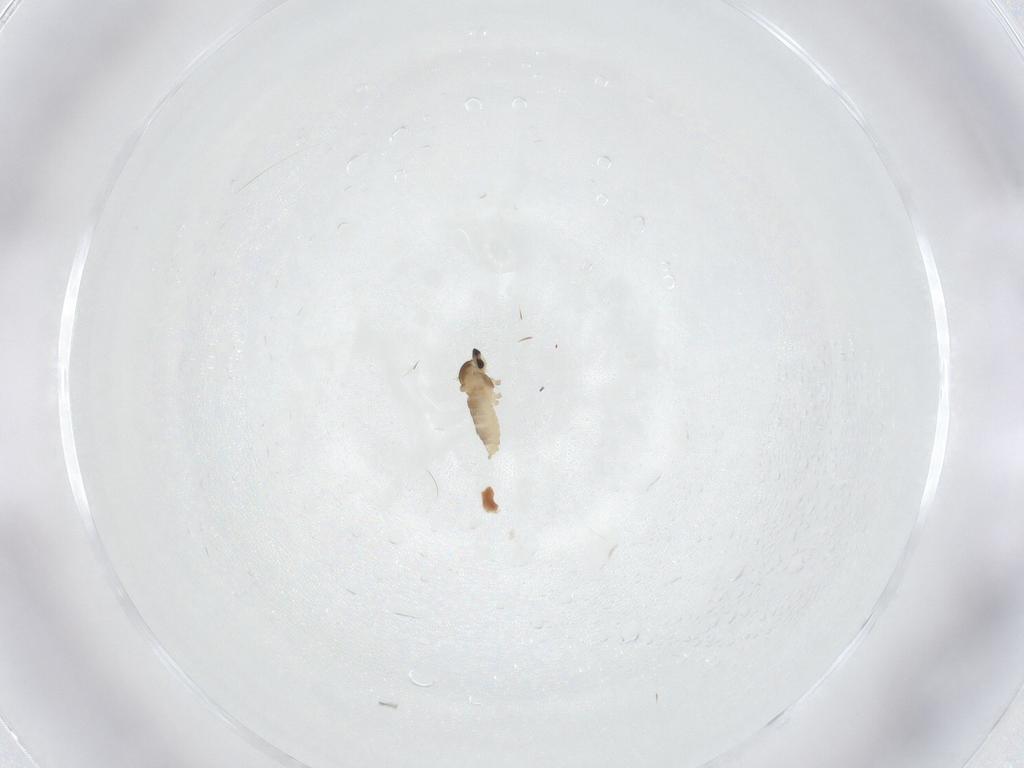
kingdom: Animalia
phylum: Arthropoda
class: Insecta
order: Diptera
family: Cecidomyiidae
